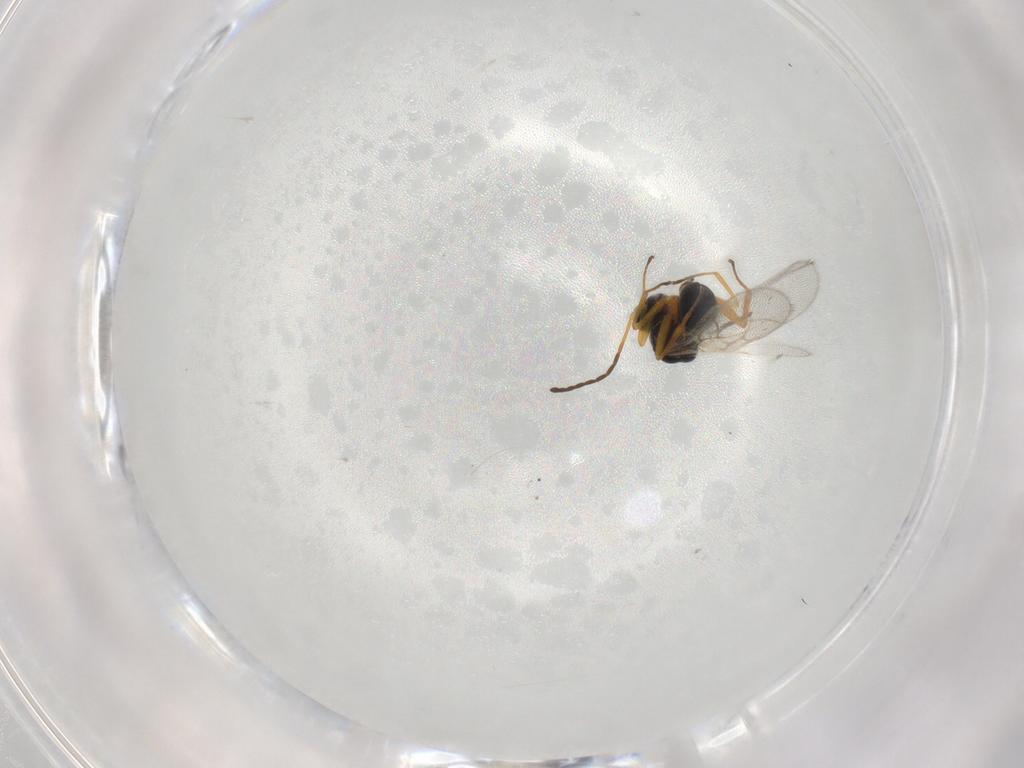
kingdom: Animalia
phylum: Arthropoda
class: Insecta
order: Hymenoptera
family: Figitidae
